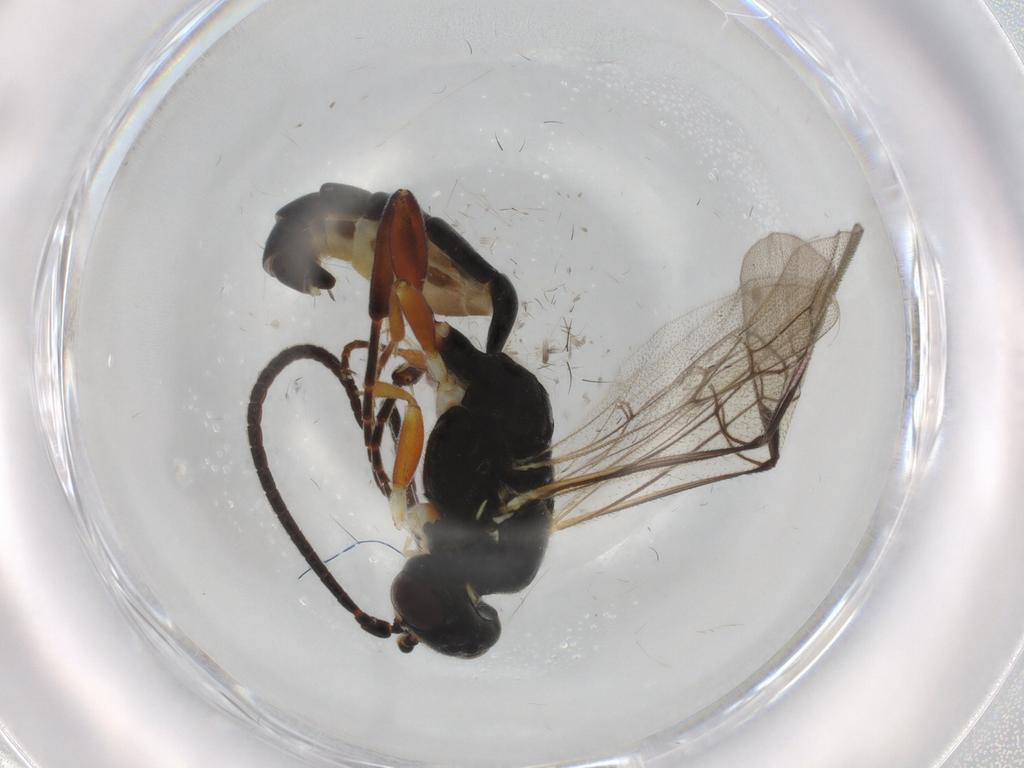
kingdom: Animalia
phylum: Arthropoda
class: Insecta
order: Hymenoptera
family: Ichneumonidae
